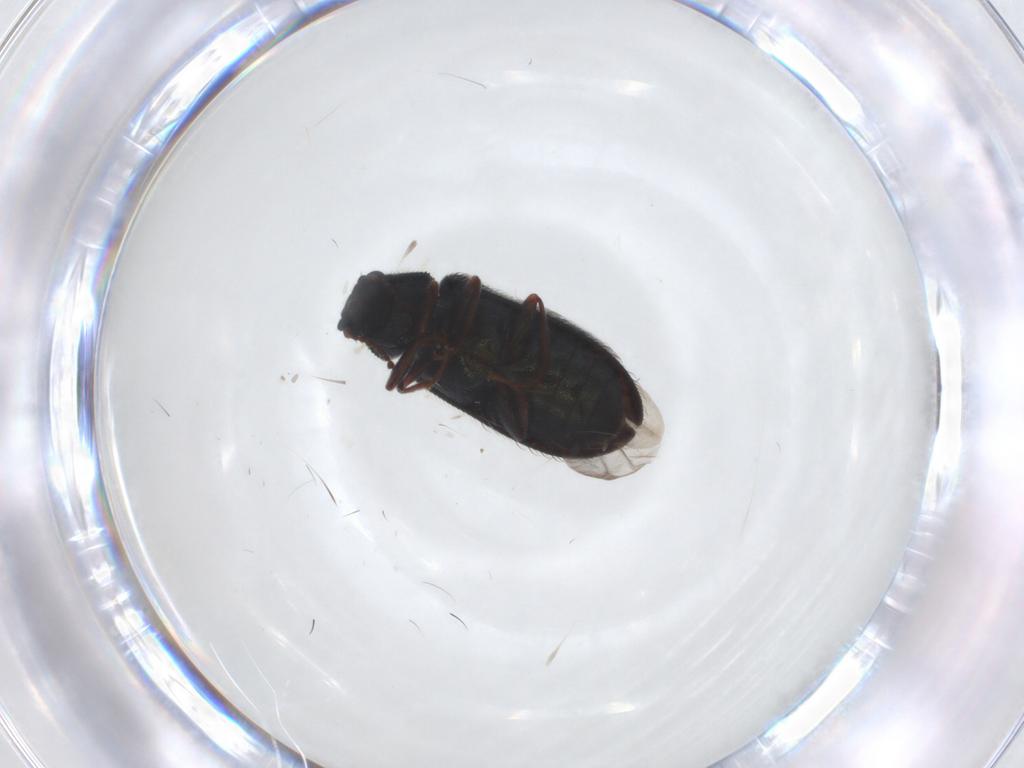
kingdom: Animalia
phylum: Arthropoda
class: Insecta
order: Coleoptera
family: Melyridae
